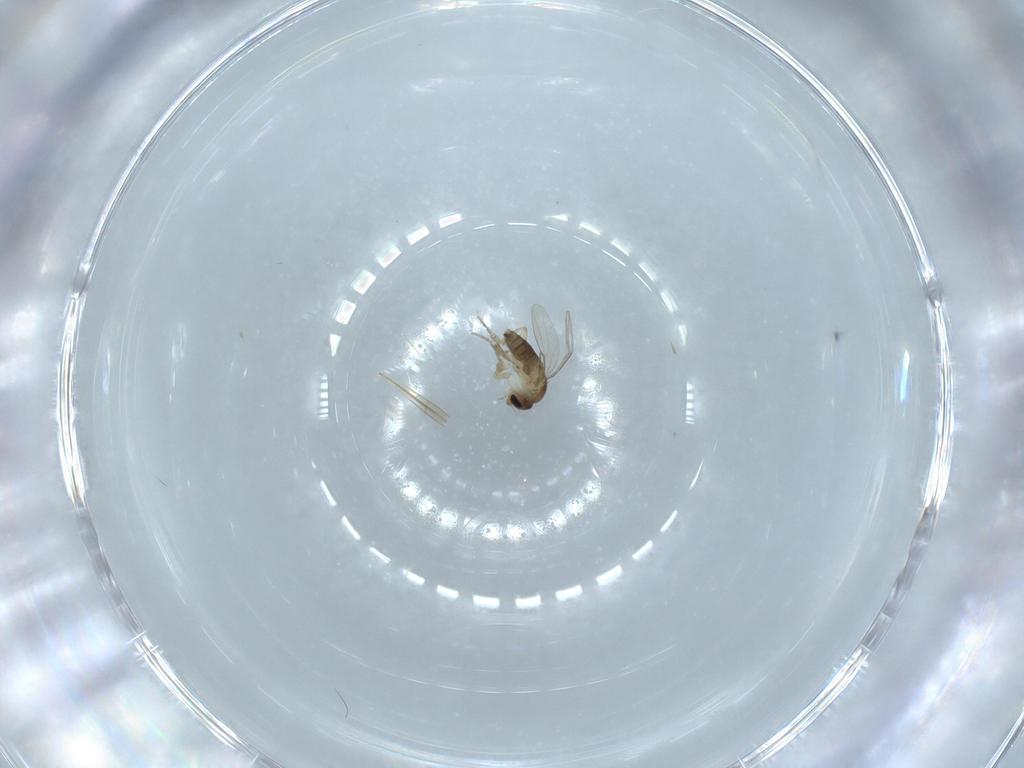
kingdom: Animalia
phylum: Arthropoda
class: Insecta
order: Diptera
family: Phoridae
